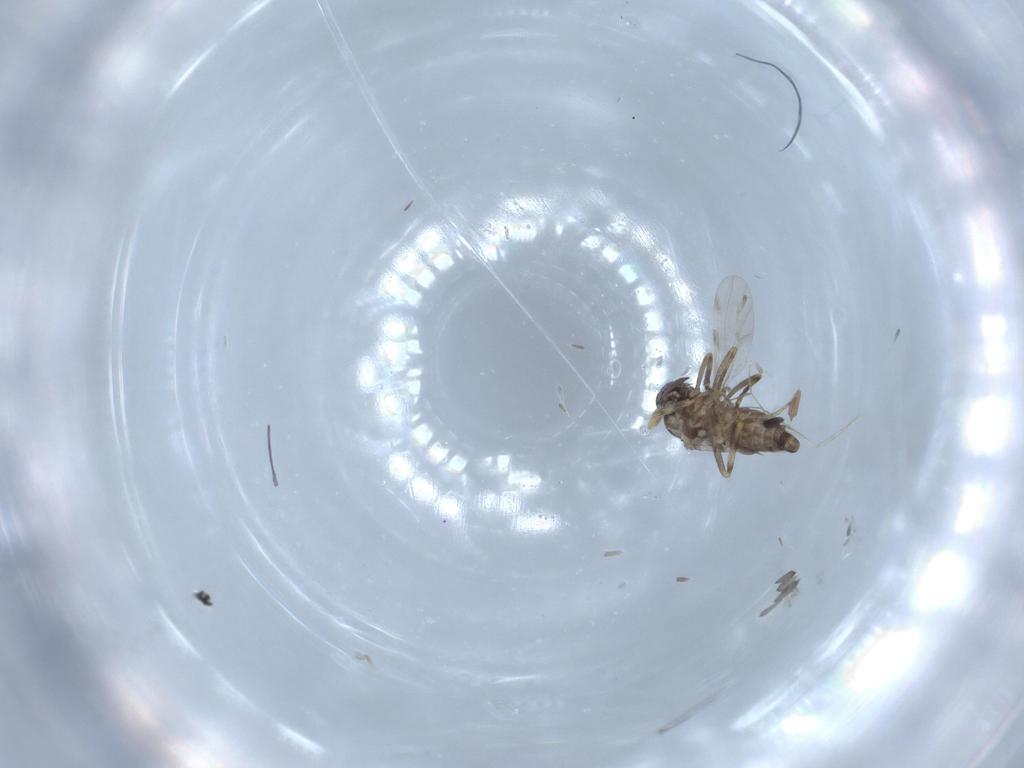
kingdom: Animalia
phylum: Arthropoda
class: Insecta
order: Diptera
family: Ceratopogonidae
